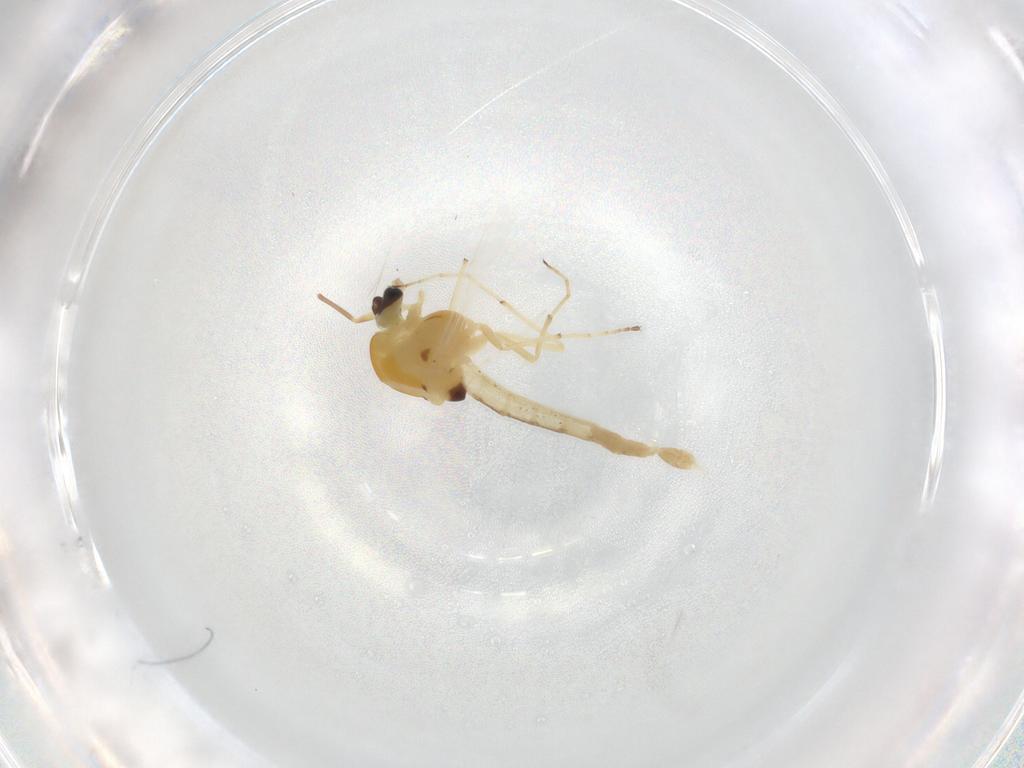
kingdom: Animalia
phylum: Arthropoda
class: Insecta
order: Diptera
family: Chironomidae
